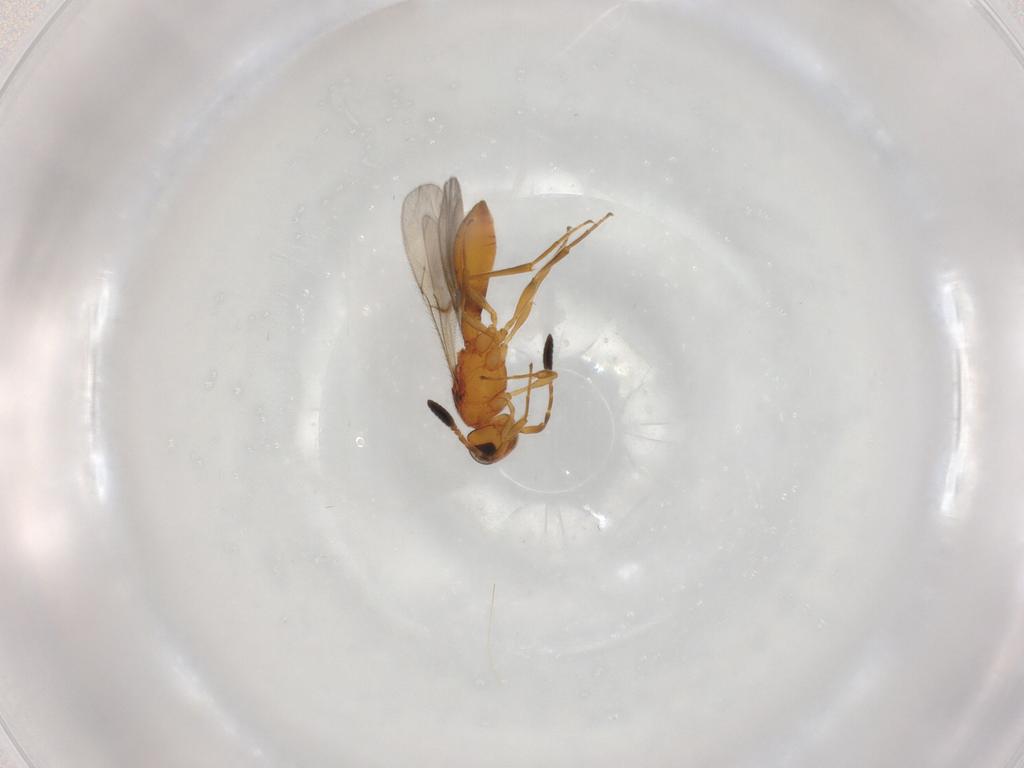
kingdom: Animalia
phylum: Arthropoda
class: Insecta
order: Hymenoptera
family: Scelionidae
